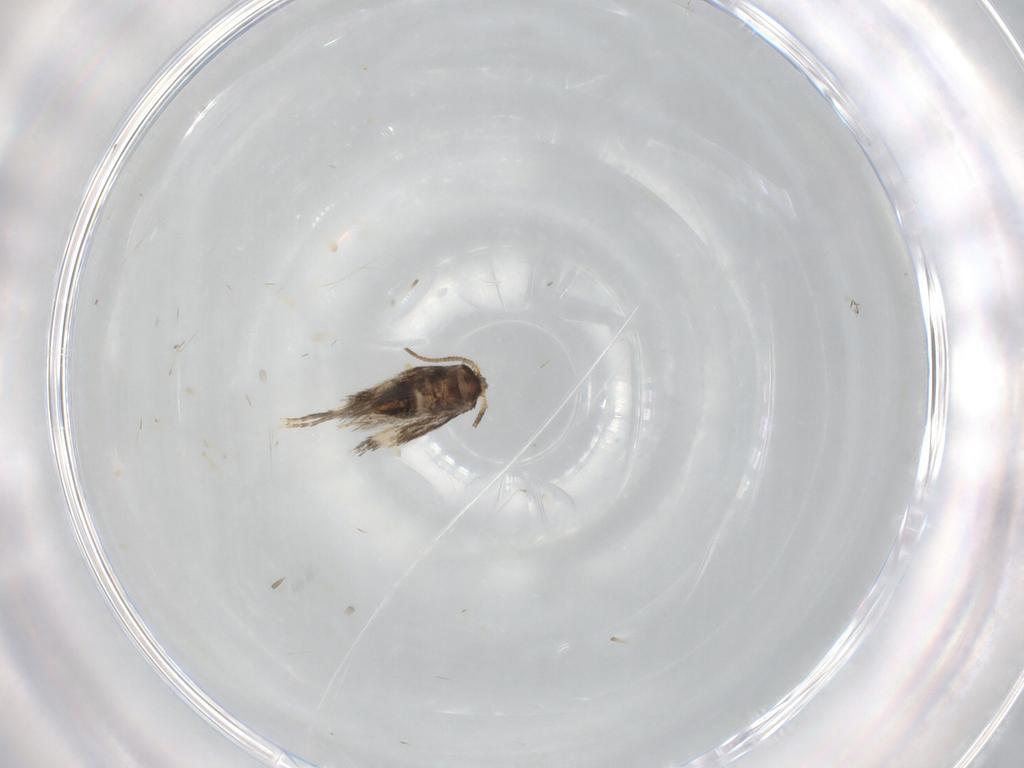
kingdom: Animalia
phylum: Arthropoda
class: Insecta
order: Lepidoptera
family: Nepticulidae
